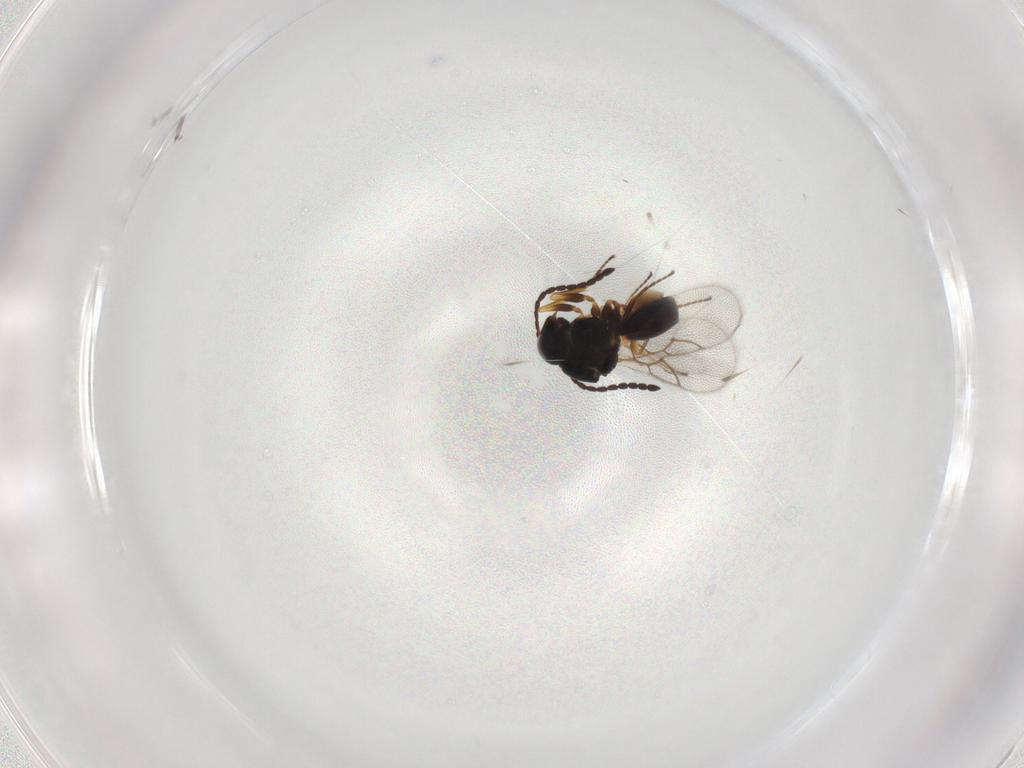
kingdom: Animalia
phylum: Arthropoda
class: Insecta
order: Hymenoptera
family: Figitidae
